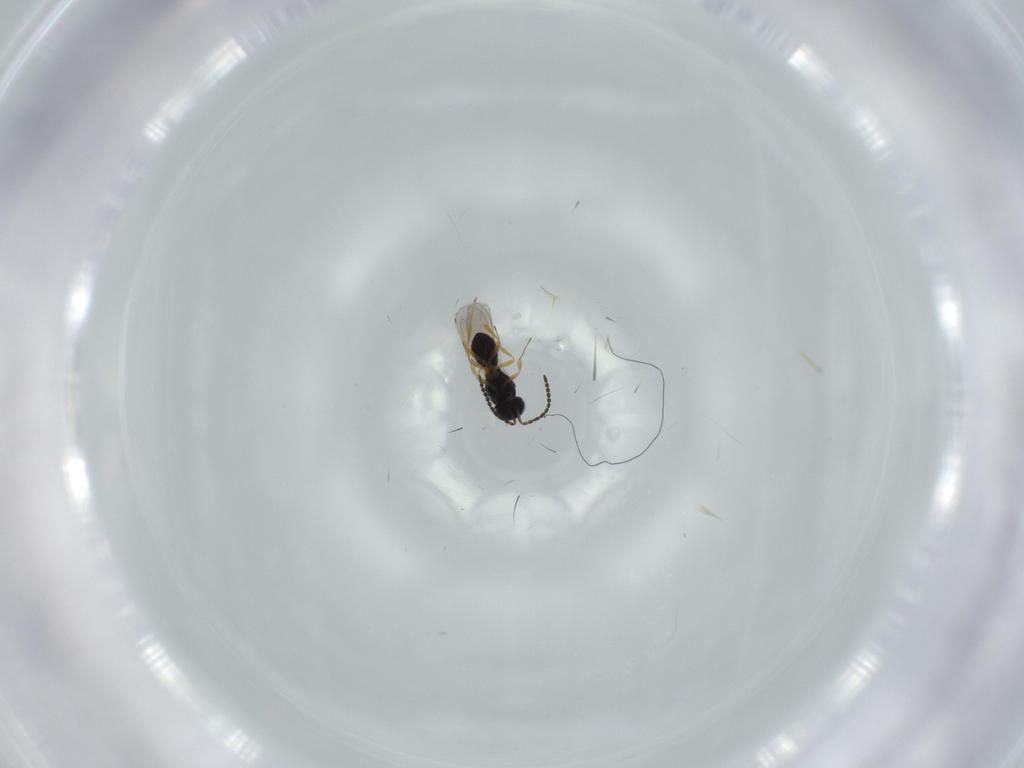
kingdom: Animalia
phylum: Arthropoda
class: Insecta
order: Hymenoptera
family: Scelionidae
